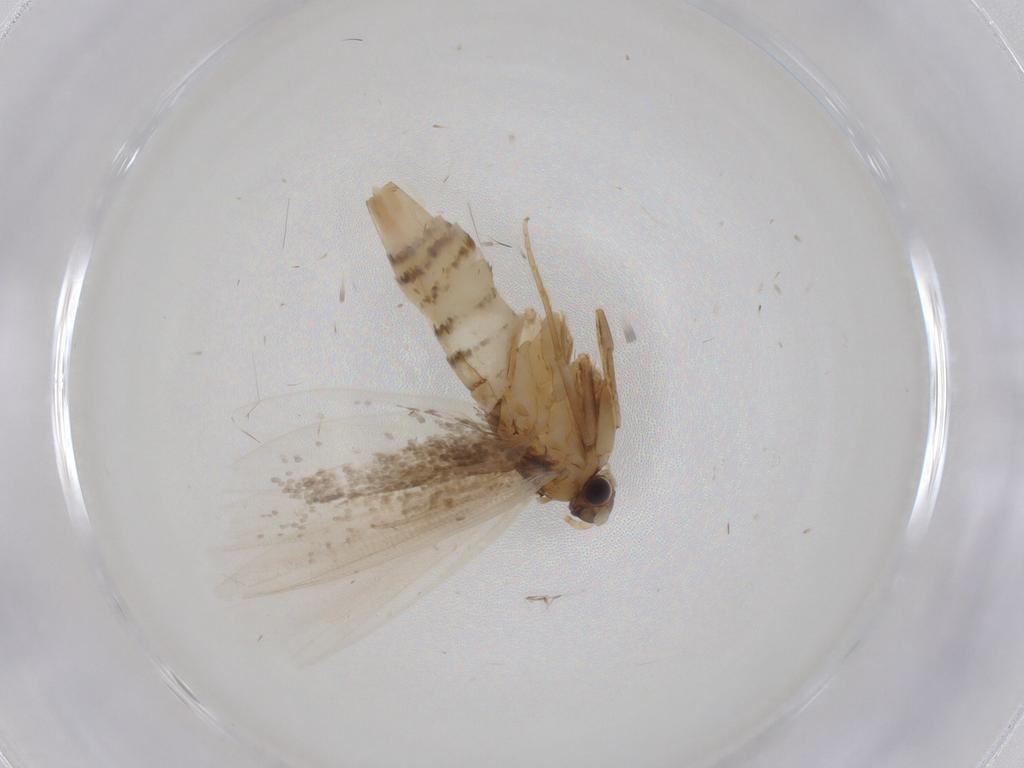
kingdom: Animalia
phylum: Arthropoda
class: Insecta
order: Lepidoptera
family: Tineidae
